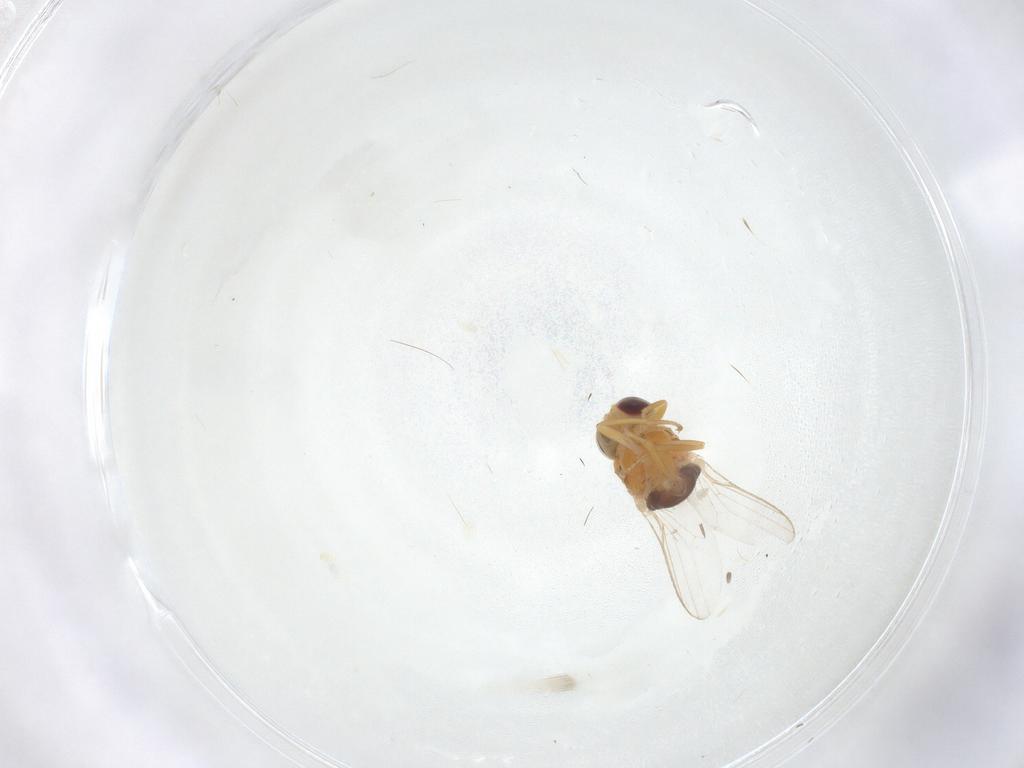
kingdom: Animalia
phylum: Arthropoda
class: Insecta
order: Diptera
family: Chloropidae
